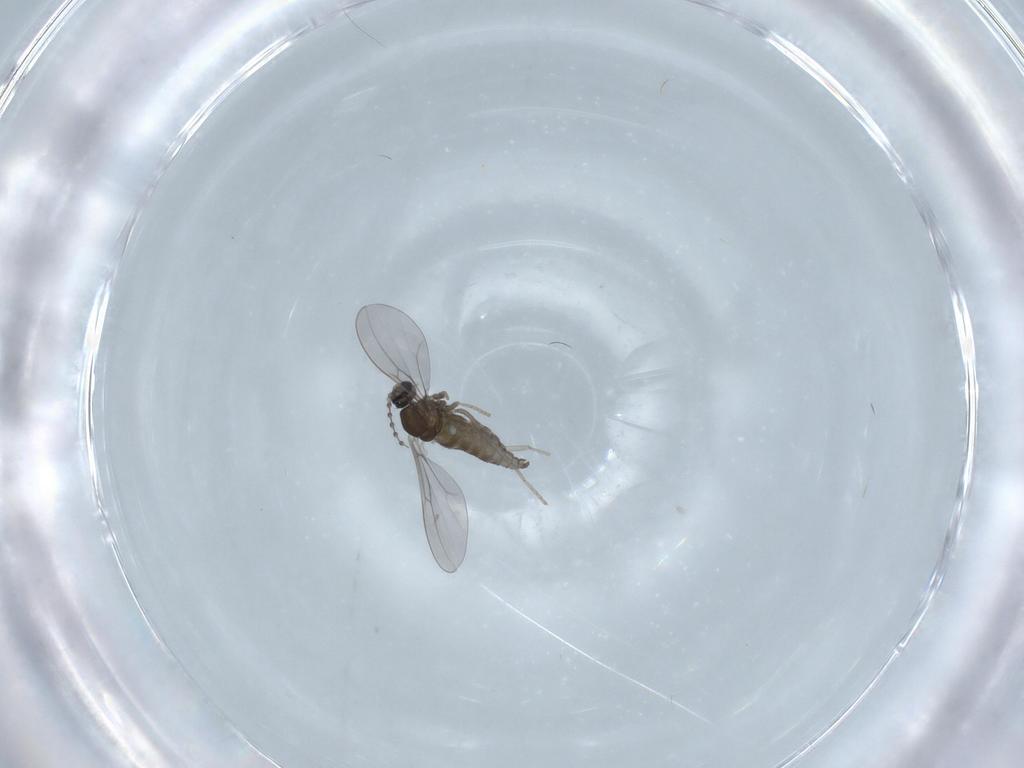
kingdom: Animalia
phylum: Arthropoda
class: Insecta
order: Diptera
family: Cecidomyiidae
